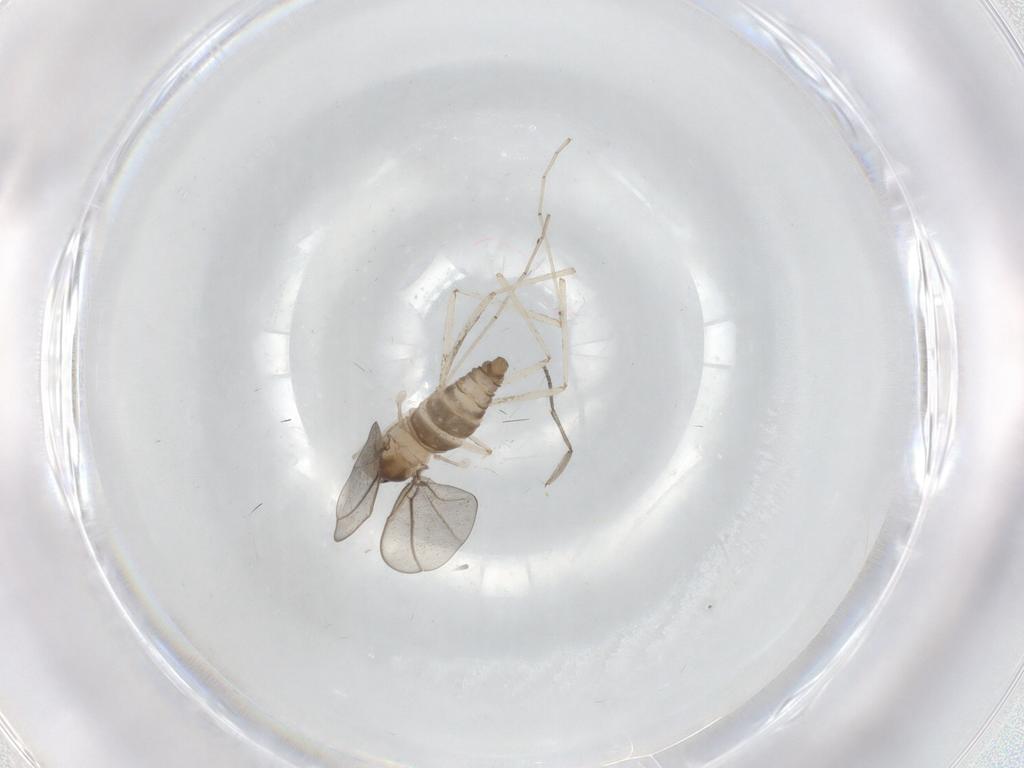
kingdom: Animalia
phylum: Arthropoda
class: Insecta
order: Diptera
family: Cecidomyiidae
